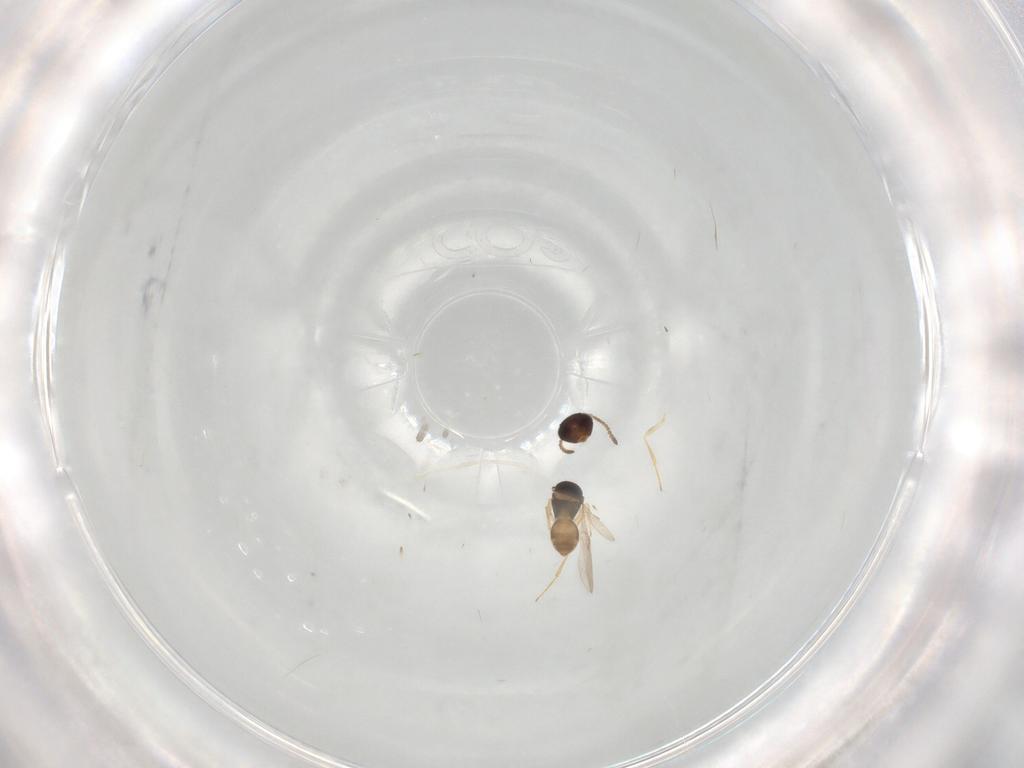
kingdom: Animalia
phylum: Arthropoda
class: Insecta
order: Hymenoptera
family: Scelionidae
